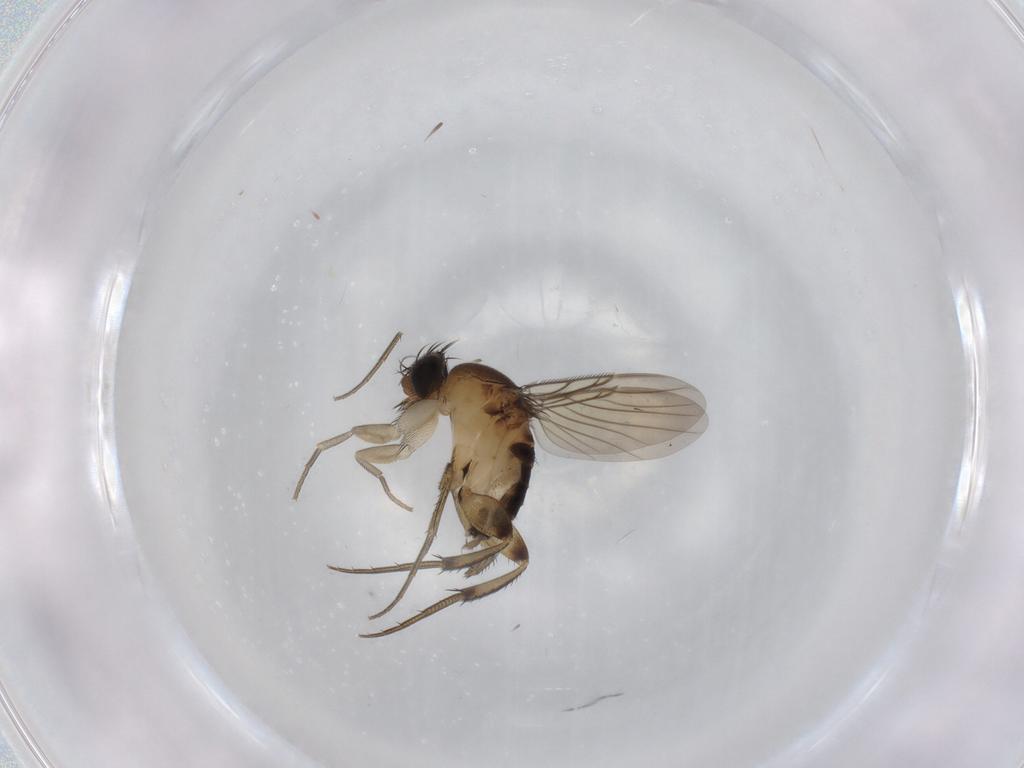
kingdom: Animalia
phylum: Arthropoda
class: Insecta
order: Diptera
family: Phoridae
